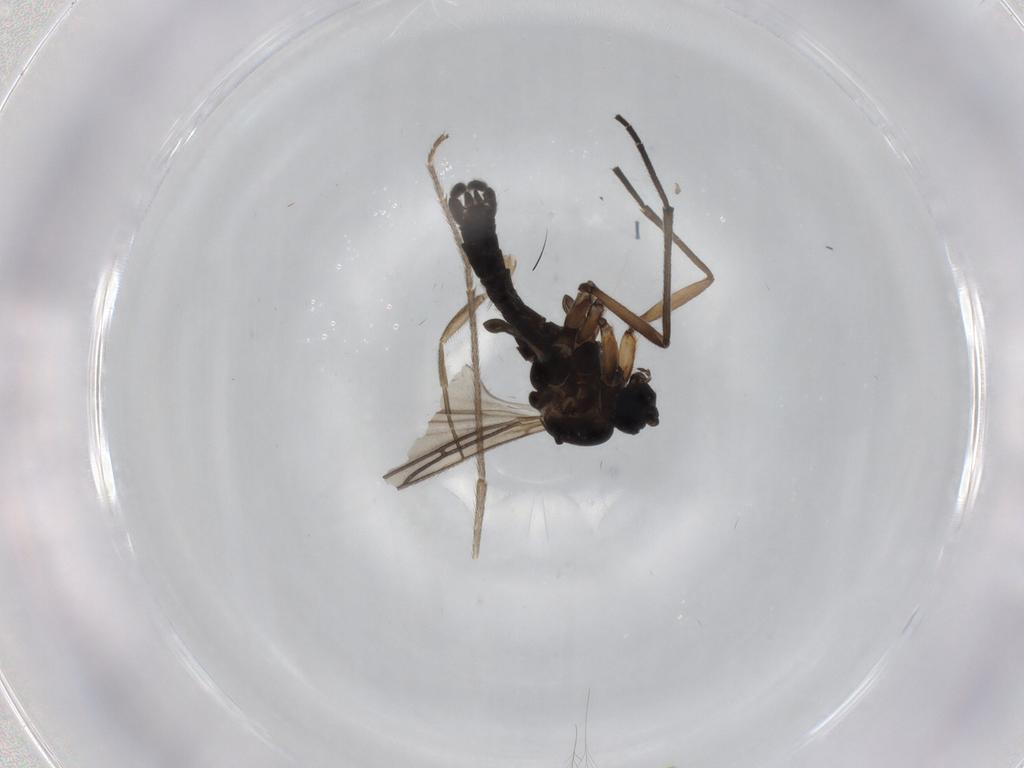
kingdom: Animalia
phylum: Arthropoda
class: Insecta
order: Diptera
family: Sciaridae
